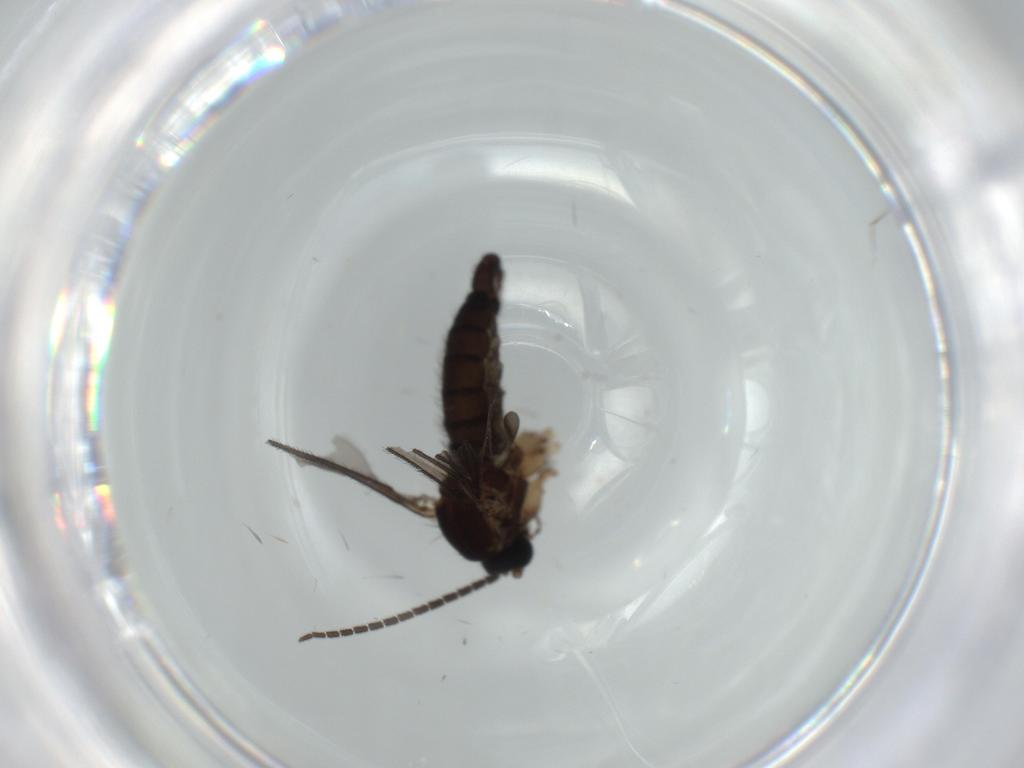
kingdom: Animalia
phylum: Arthropoda
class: Insecta
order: Diptera
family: Sciaridae
